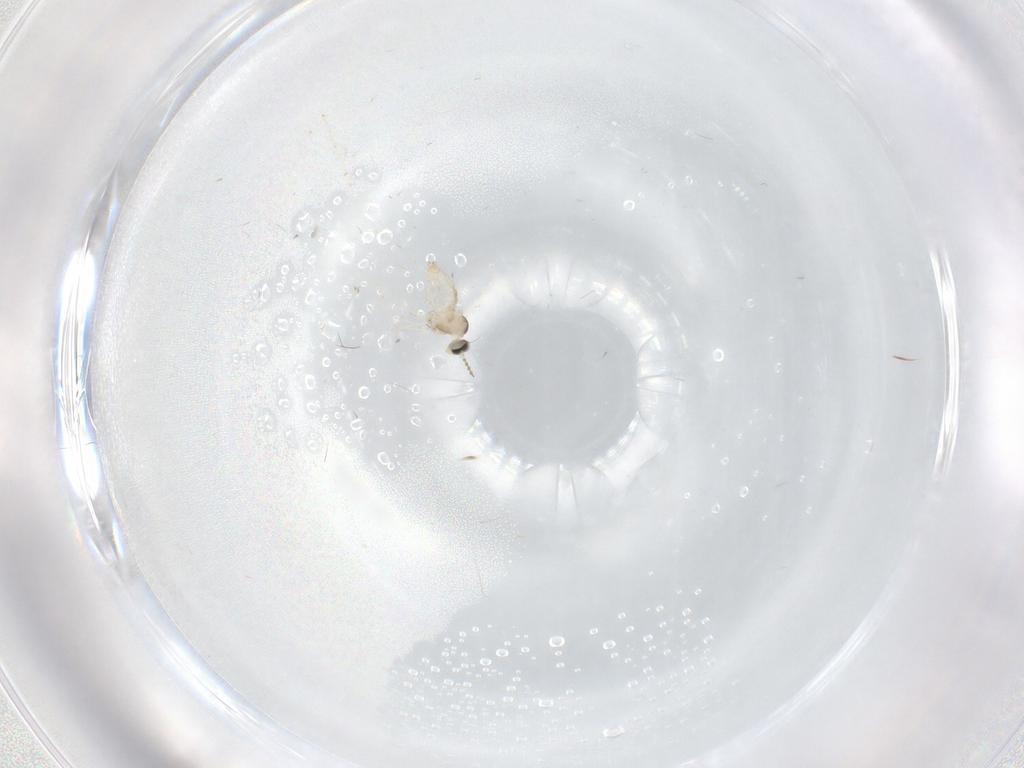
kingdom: Animalia
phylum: Arthropoda
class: Insecta
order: Diptera
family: Cecidomyiidae
